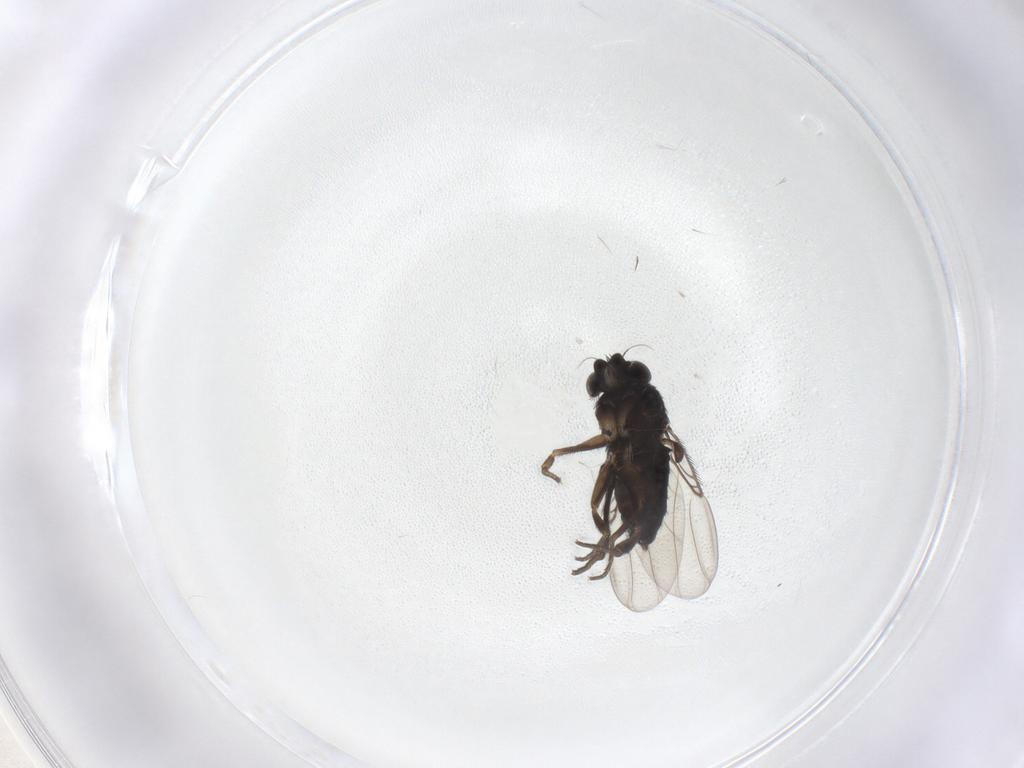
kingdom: Animalia
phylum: Arthropoda
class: Insecta
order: Diptera
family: Phoridae
